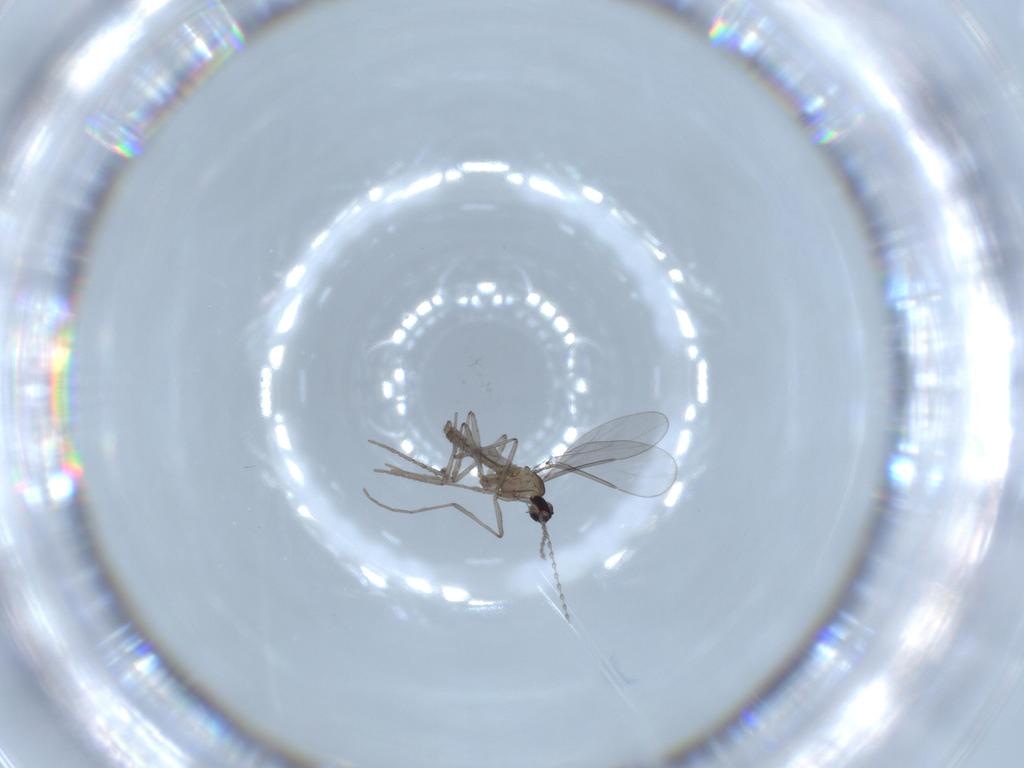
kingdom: Animalia
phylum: Arthropoda
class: Insecta
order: Diptera
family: Cecidomyiidae
